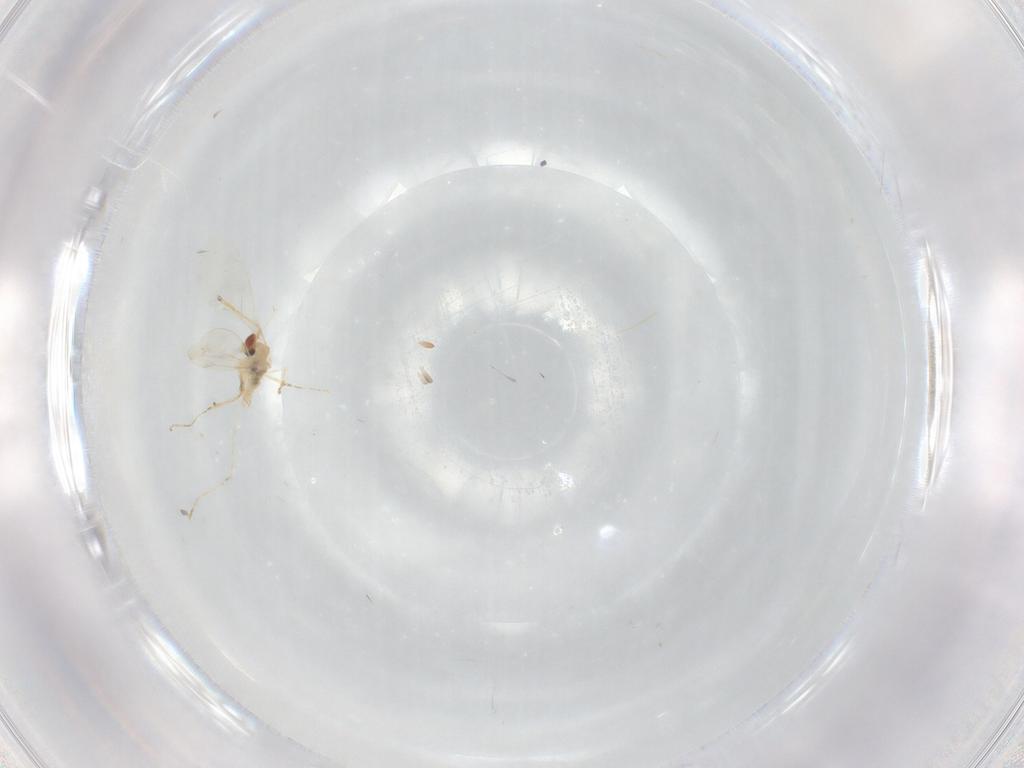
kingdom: Animalia
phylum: Arthropoda
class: Insecta
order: Diptera
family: Cecidomyiidae
